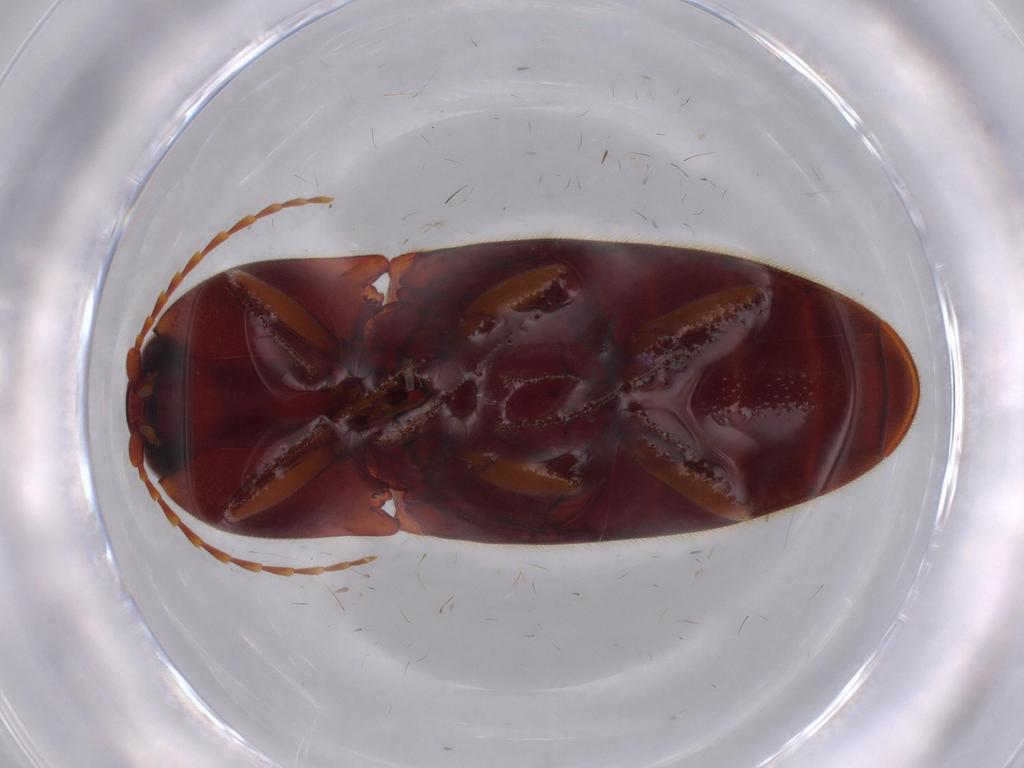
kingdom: Animalia
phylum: Arthropoda
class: Insecta
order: Coleoptera
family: Elateridae
